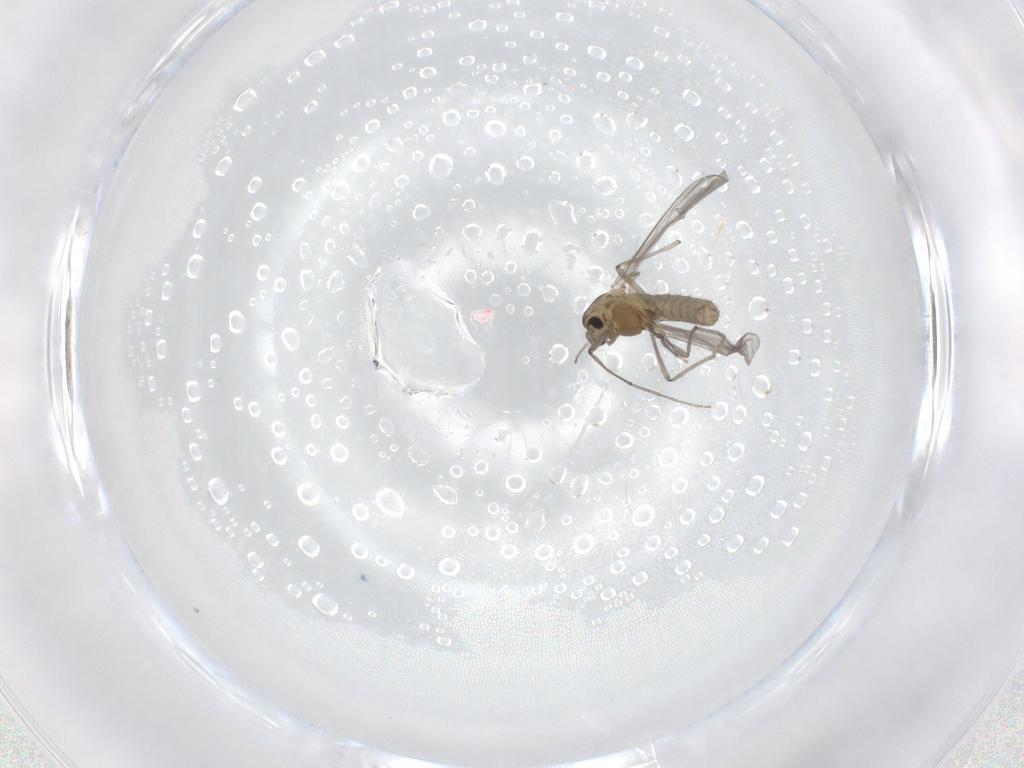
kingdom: Animalia
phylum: Arthropoda
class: Insecta
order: Diptera
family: Chironomidae
